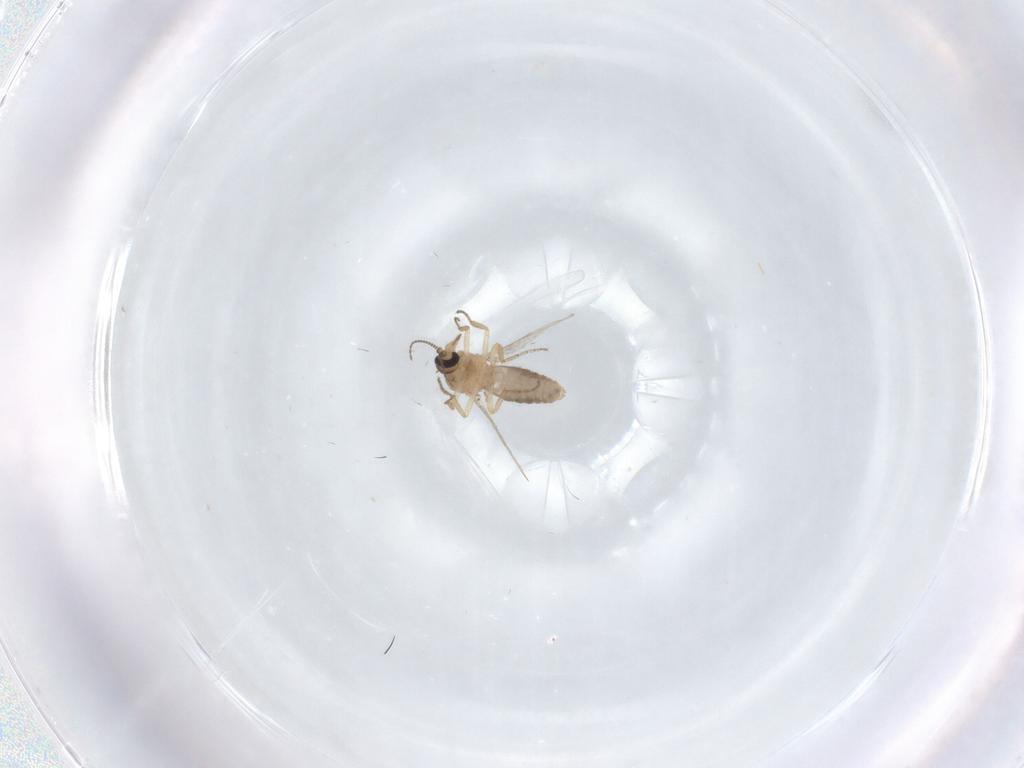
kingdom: Animalia
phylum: Arthropoda
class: Insecta
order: Diptera
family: Ceratopogonidae
